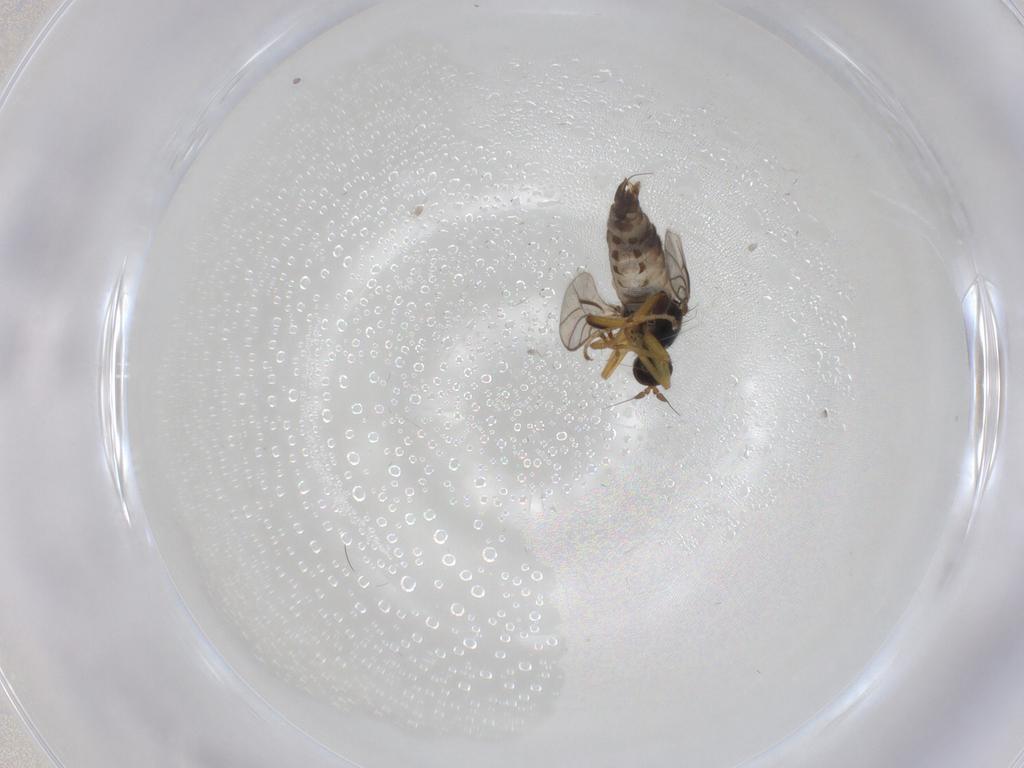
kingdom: Animalia
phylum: Arthropoda
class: Insecta
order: Diptera
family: Hybotidae
